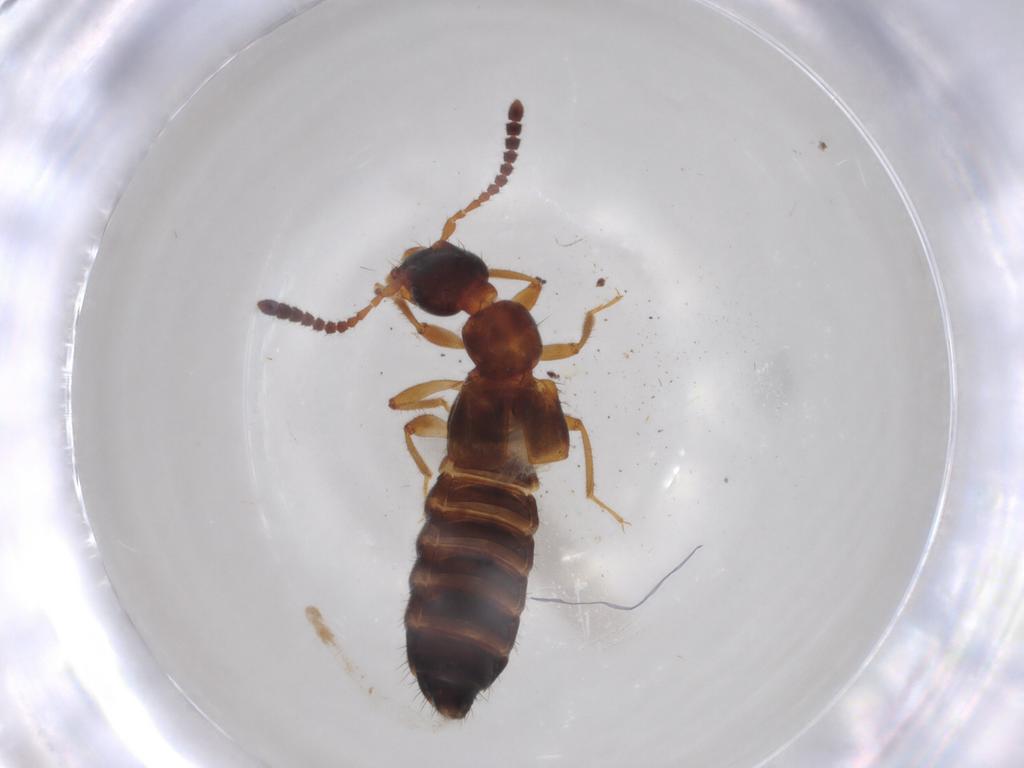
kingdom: Animalia
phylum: Arthropoda
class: Insecta
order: Coleoptera
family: Staphylinidae
